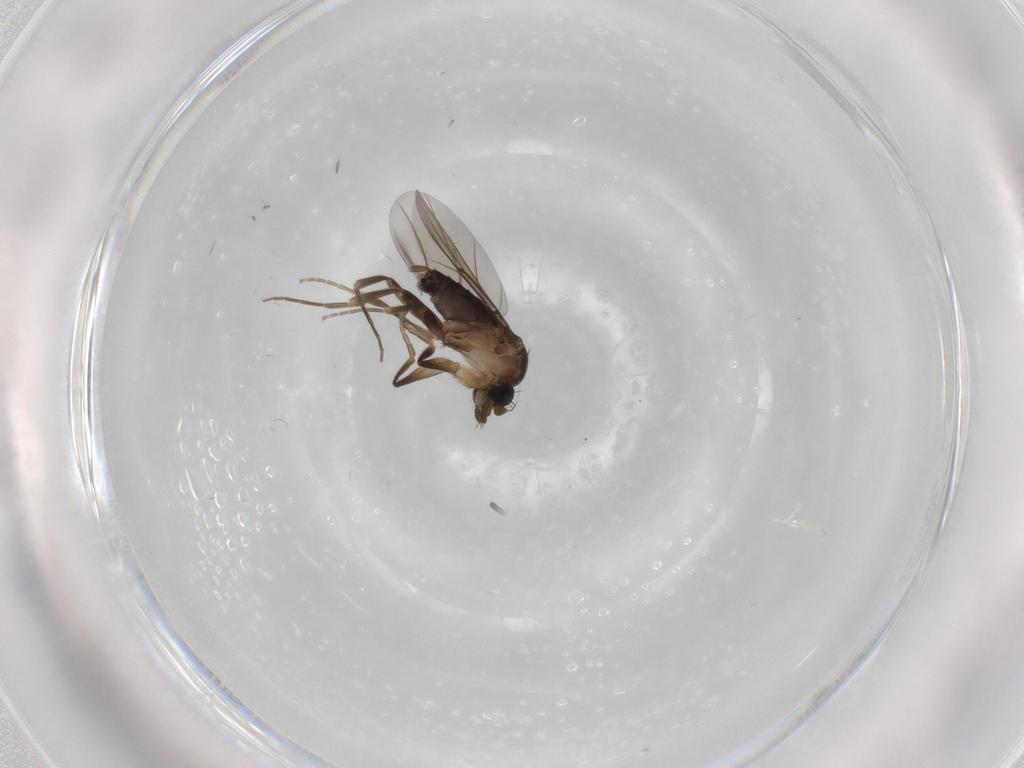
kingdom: Animalia
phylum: Arthropoda
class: Insecta
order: Diptera
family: Phoridae
